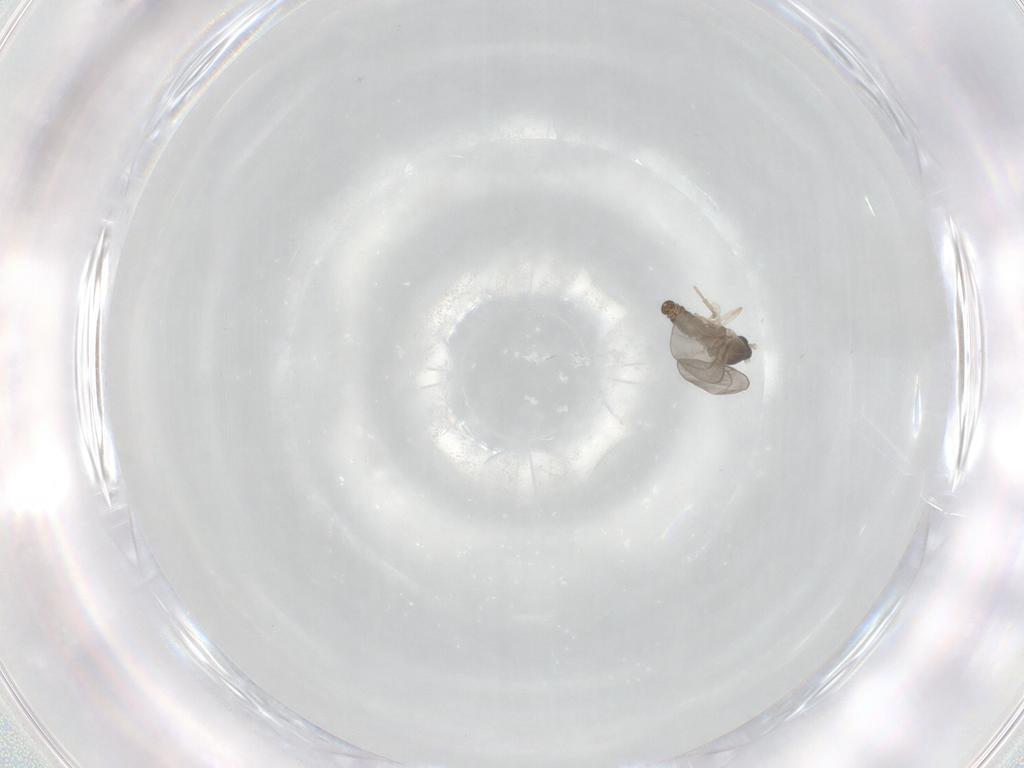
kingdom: Animalia
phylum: Arthropoda
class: Insecta
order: Diptera
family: Cecidomyiidae
